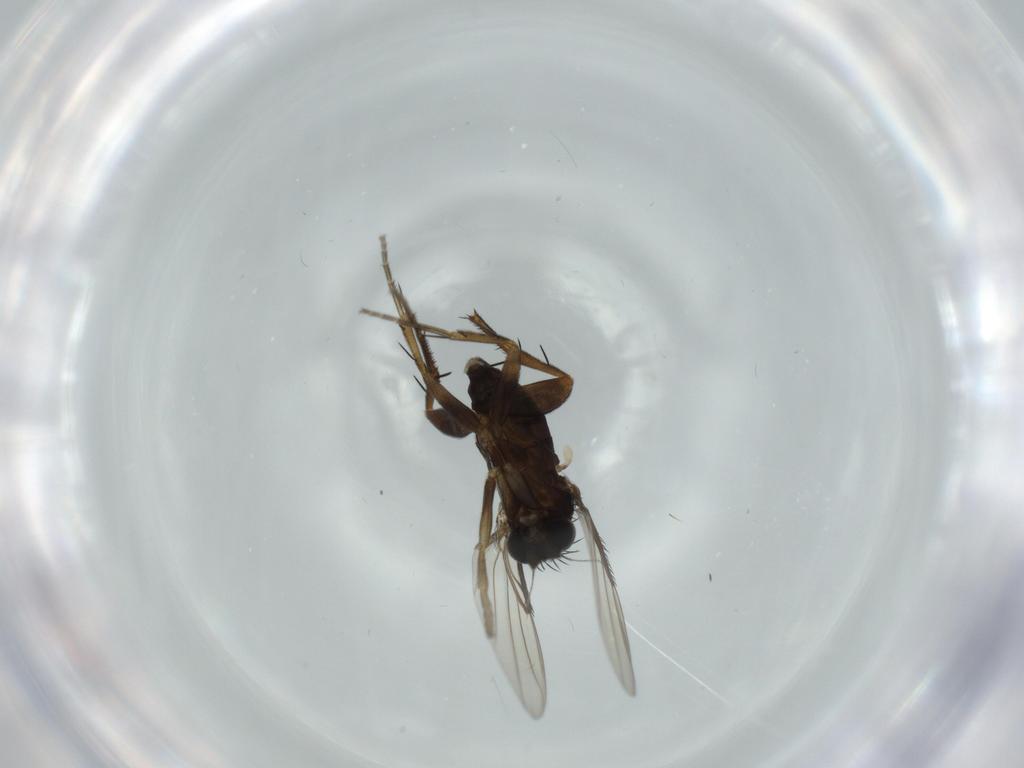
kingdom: Animalia
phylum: Arthropoda
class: Insecta
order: Diptera
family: Phoridae
